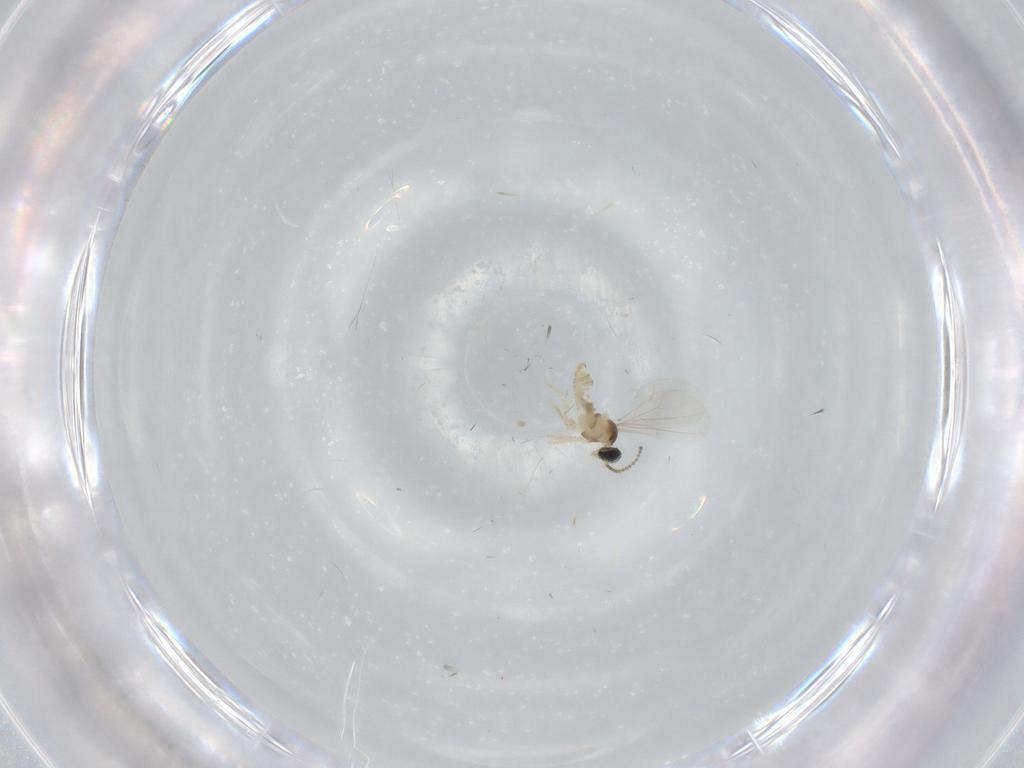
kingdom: Animalia
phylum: Arthropoda
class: Insecta
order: Diptera
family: Cecidomyiidae
